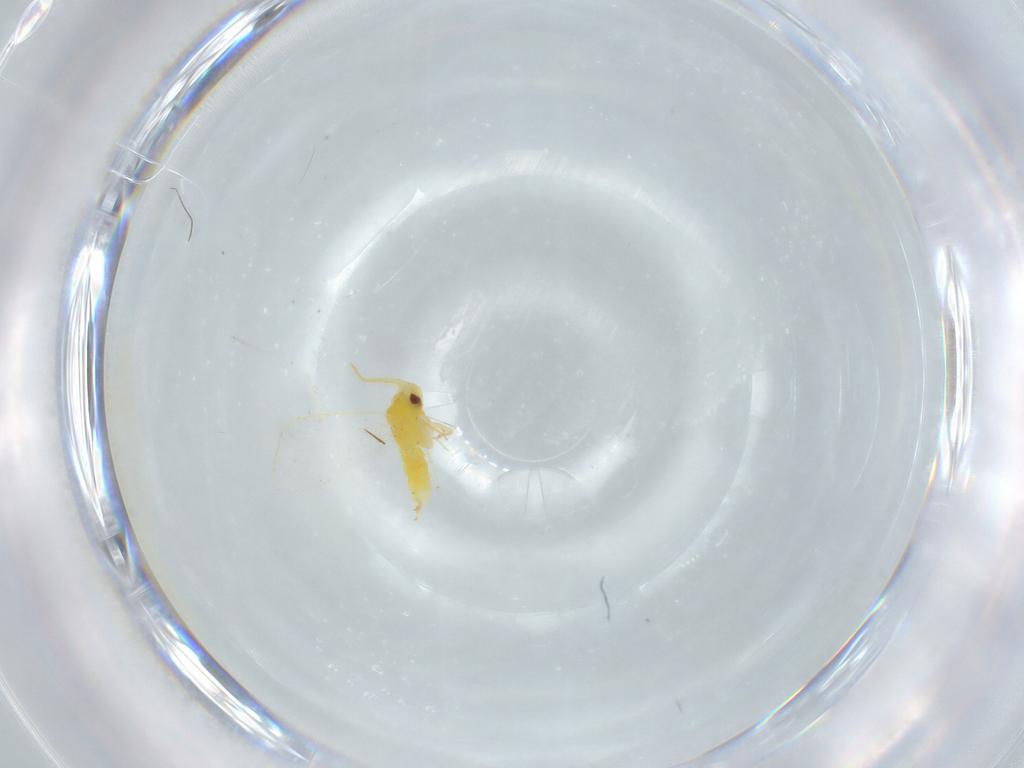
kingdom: Animalia
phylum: Arthropoda
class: Insecta
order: Hemiptera
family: Aleyrodidae
